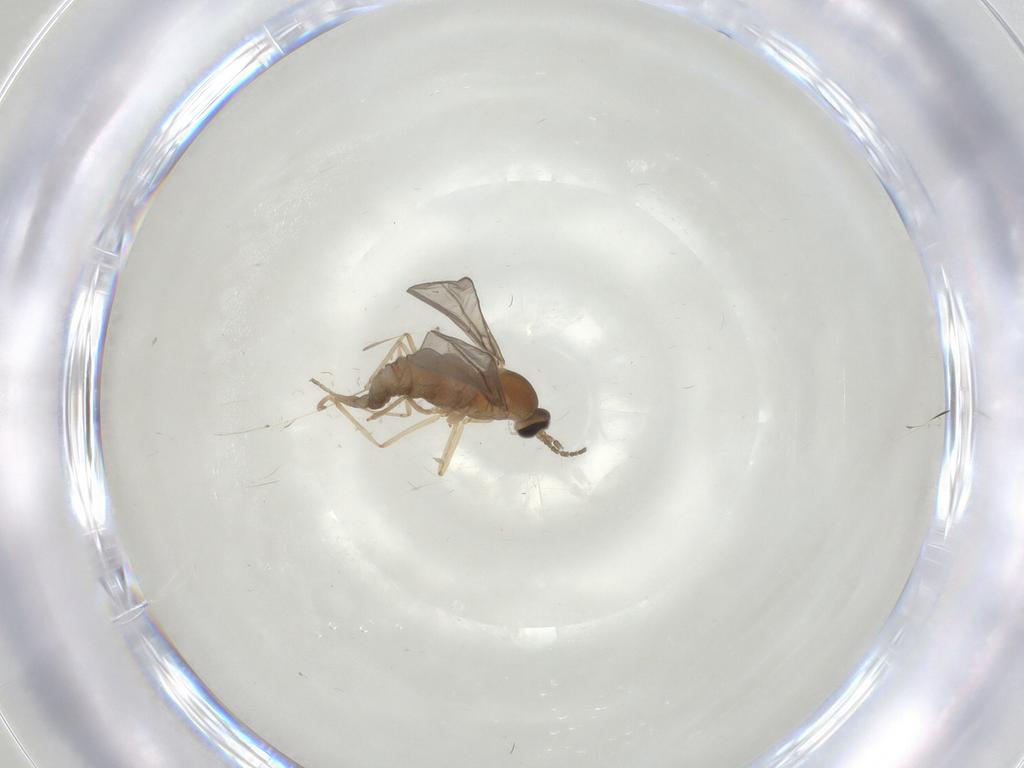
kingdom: Animalia
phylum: Arthropoda
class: Insecta
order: Diptera
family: Cecidomyiidae
